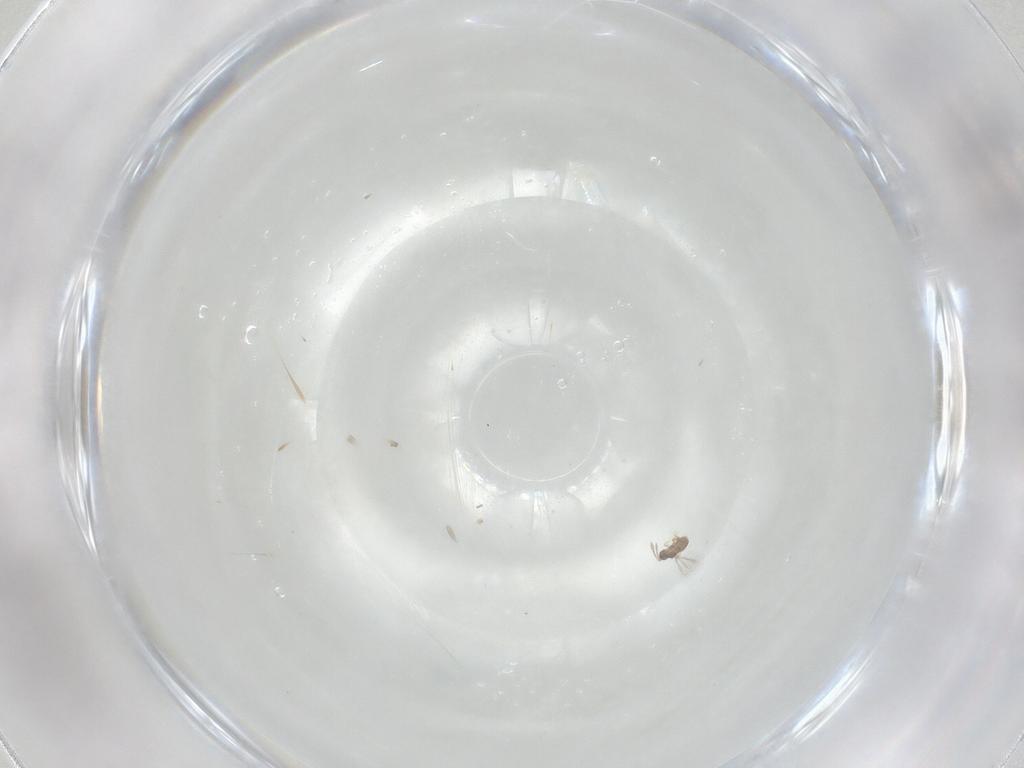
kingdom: Animalia
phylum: Arthropoda
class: Insecta
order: Hymenoptera
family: Mymaridae
